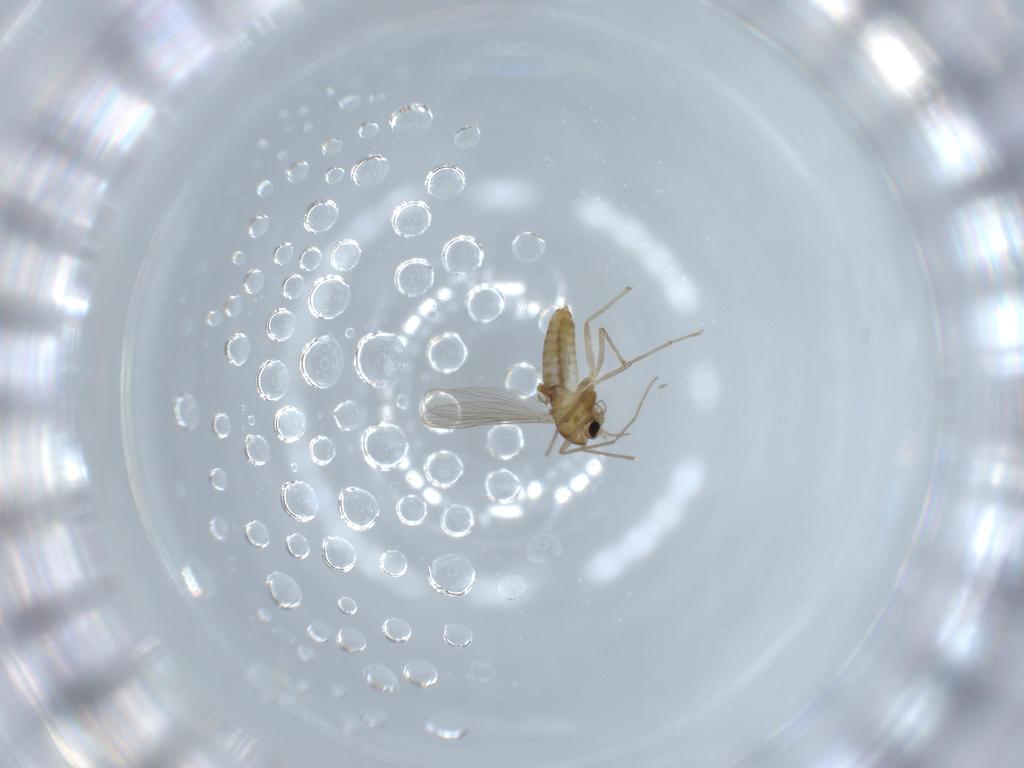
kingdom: Animalia
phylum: Arthropoda
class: Insecta
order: Diptera
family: Chironomidae
